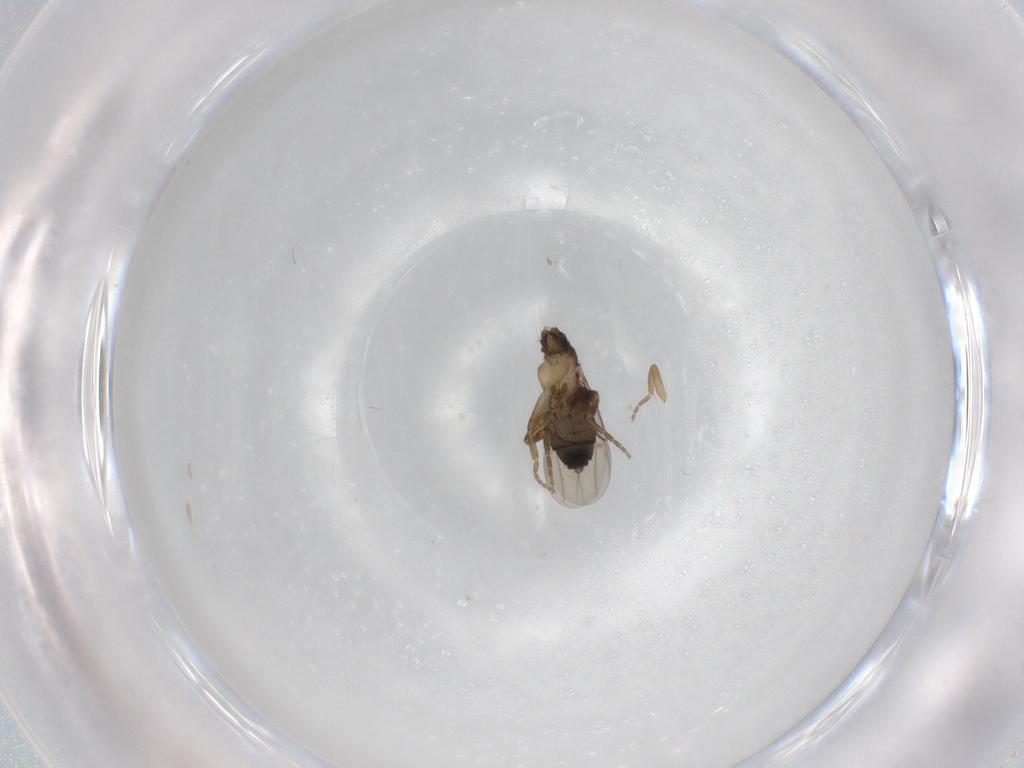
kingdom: Animalia
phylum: Arthropoda
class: Insecta
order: Diptera
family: Phoridae
